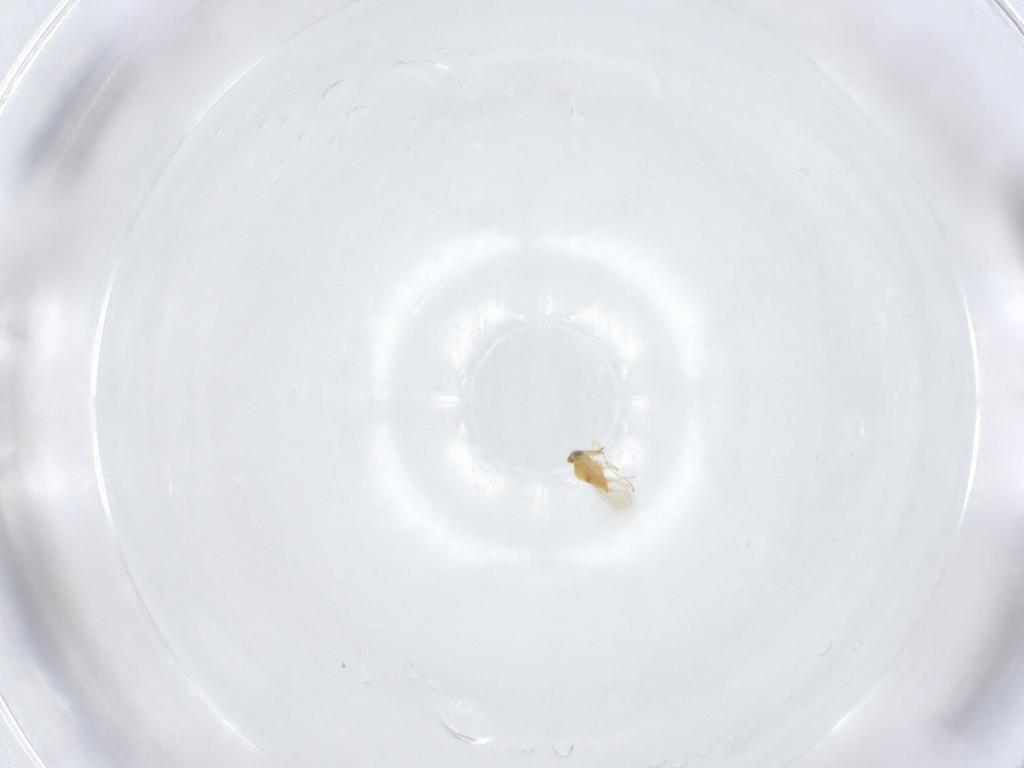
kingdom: Animalia
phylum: Arthropoda
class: Insecta
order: Hymenoptera
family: Aphelinidae
